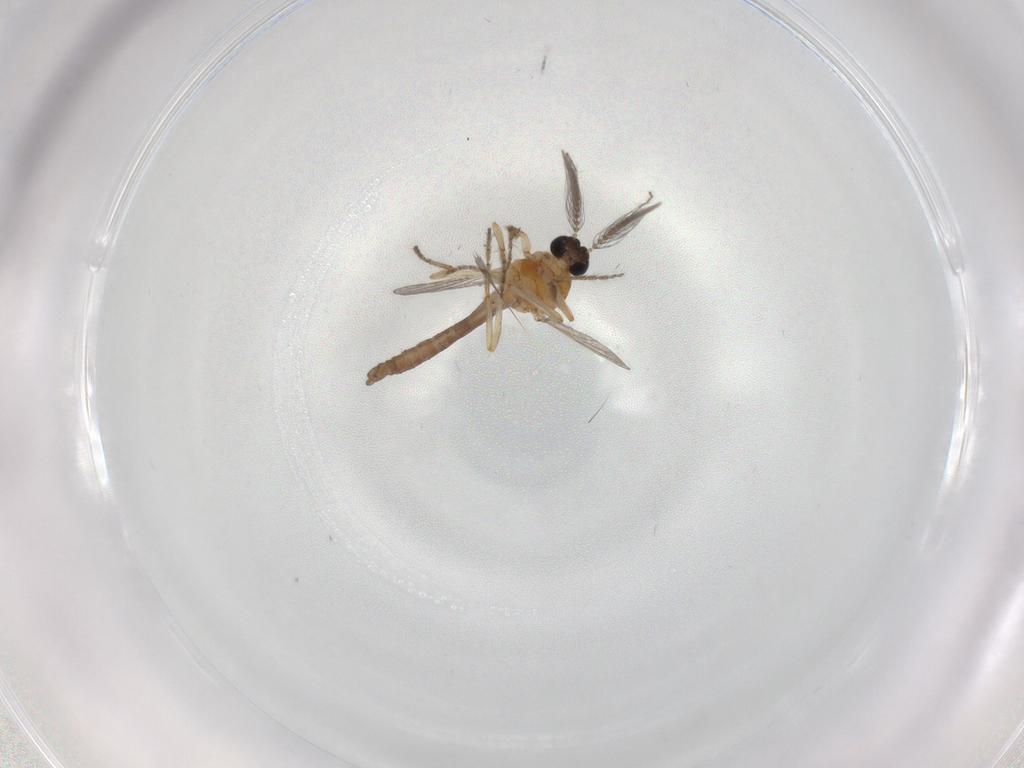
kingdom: Animalia
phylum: Arthropoda
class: Insecta
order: Diptera
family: Ceratopogonidae
